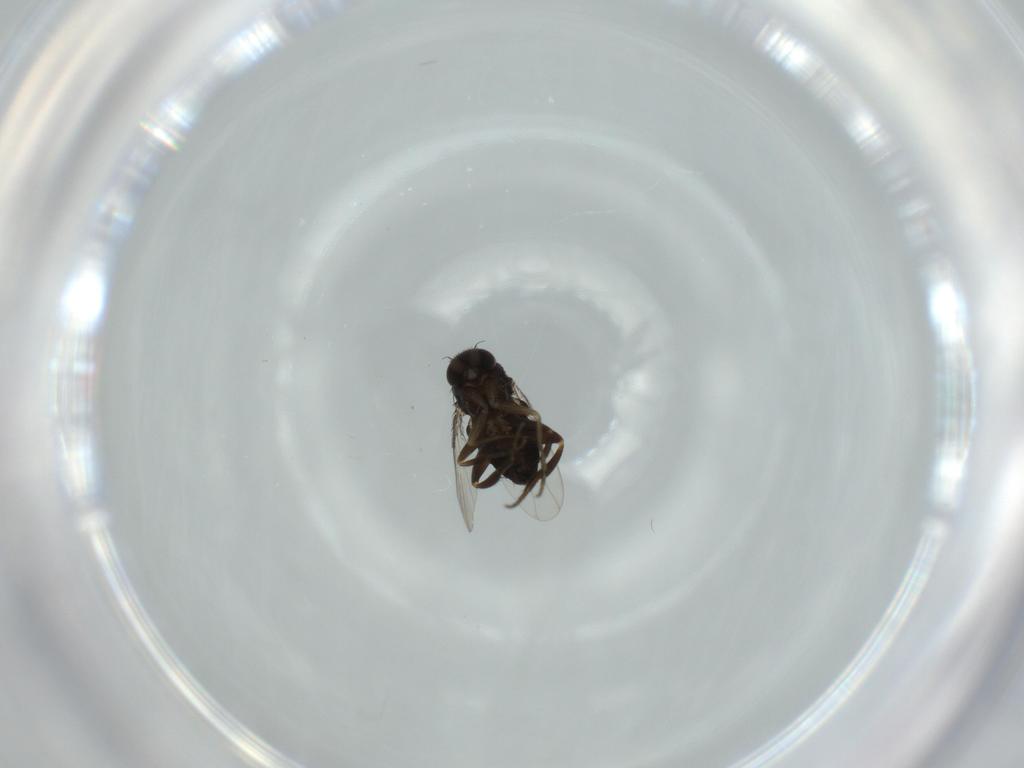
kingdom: Animalia
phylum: Arthropoda
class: Insecta
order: Diptera
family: Phoridae
